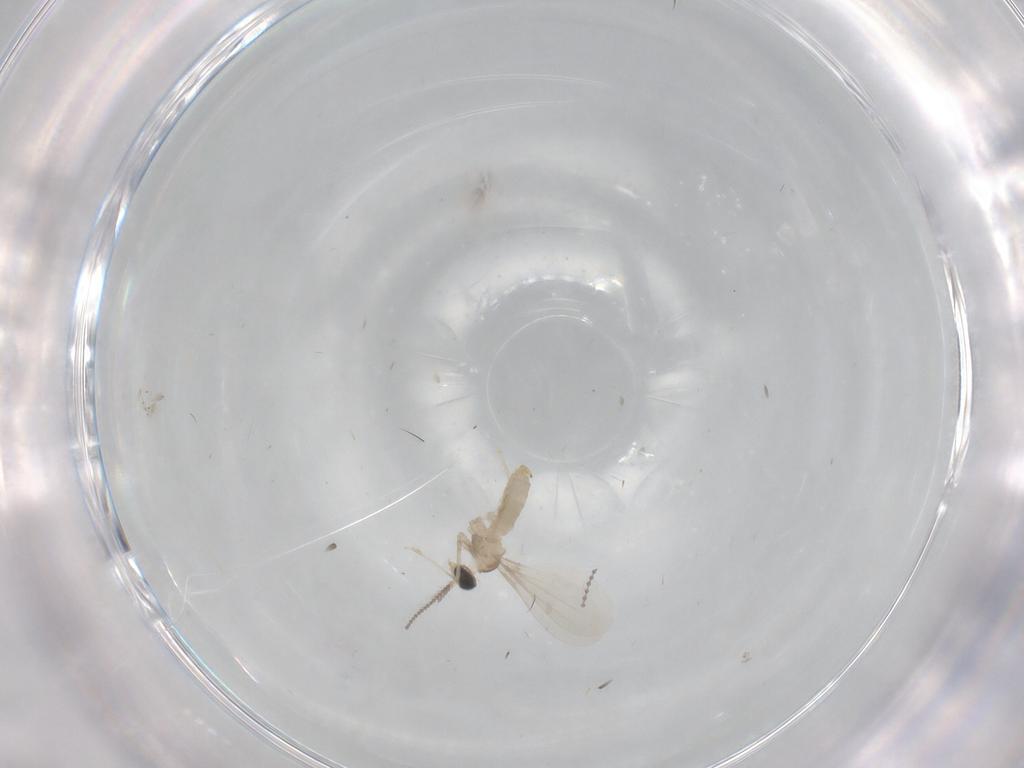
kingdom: Animalia
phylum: Arthropoda
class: Insecta
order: Diptera
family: Cecidomyiidae
